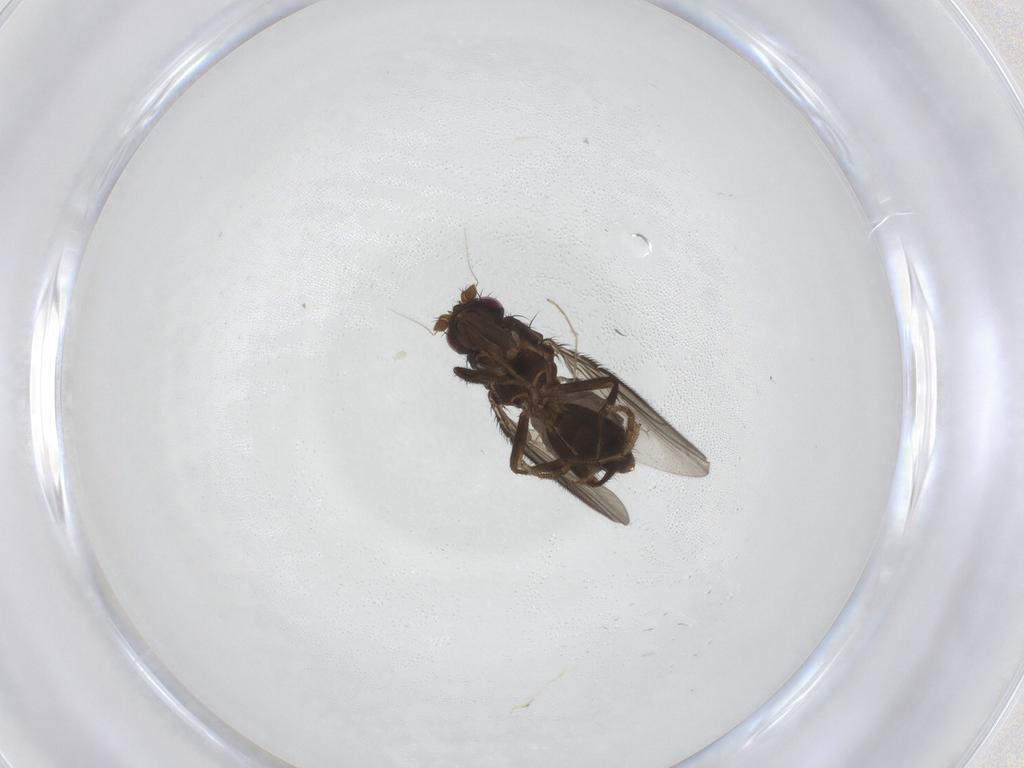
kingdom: Animalia
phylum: Arthropoda
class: Insecta
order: Diptera
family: Sphaeroceridae
